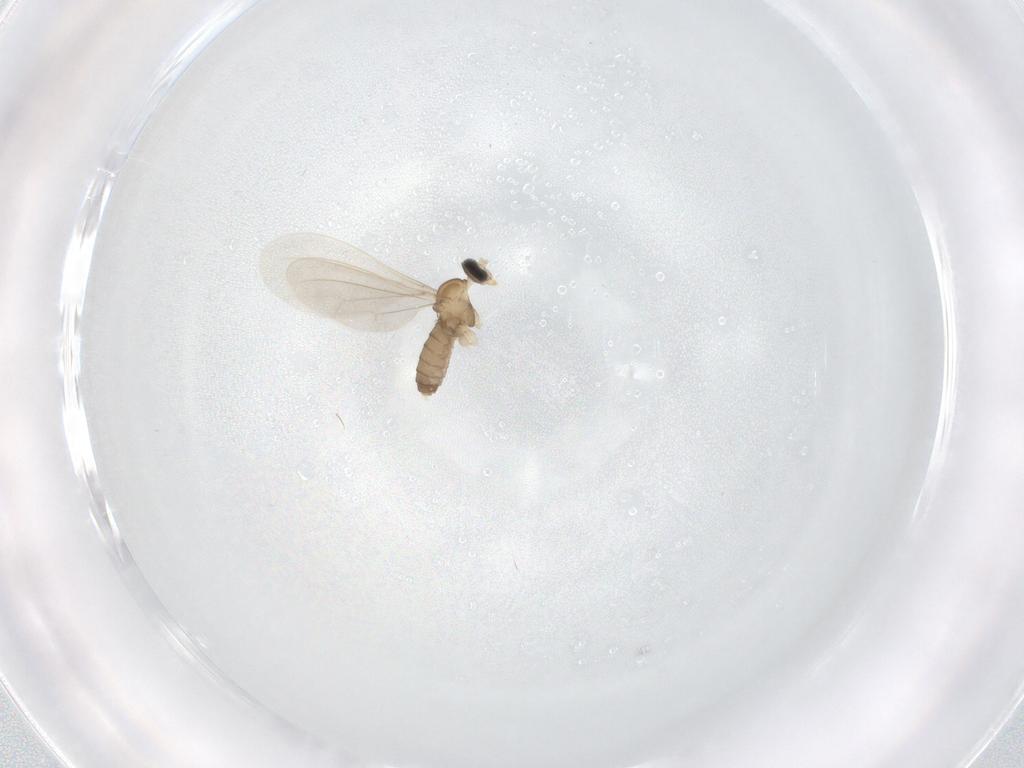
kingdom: Animalia
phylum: Arthropoda
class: Insecta
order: Diptera
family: Cecidomyiidae
